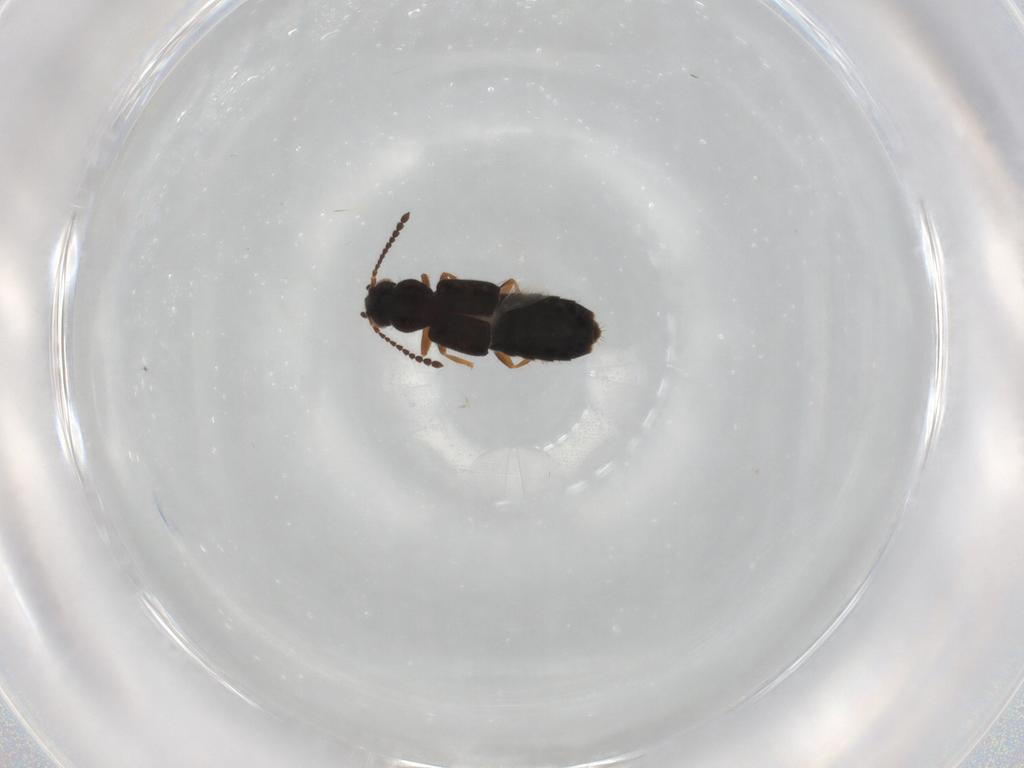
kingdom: Animalia
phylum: Arthropoda
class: Insecta
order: Coleoptera
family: Staphylinidae
